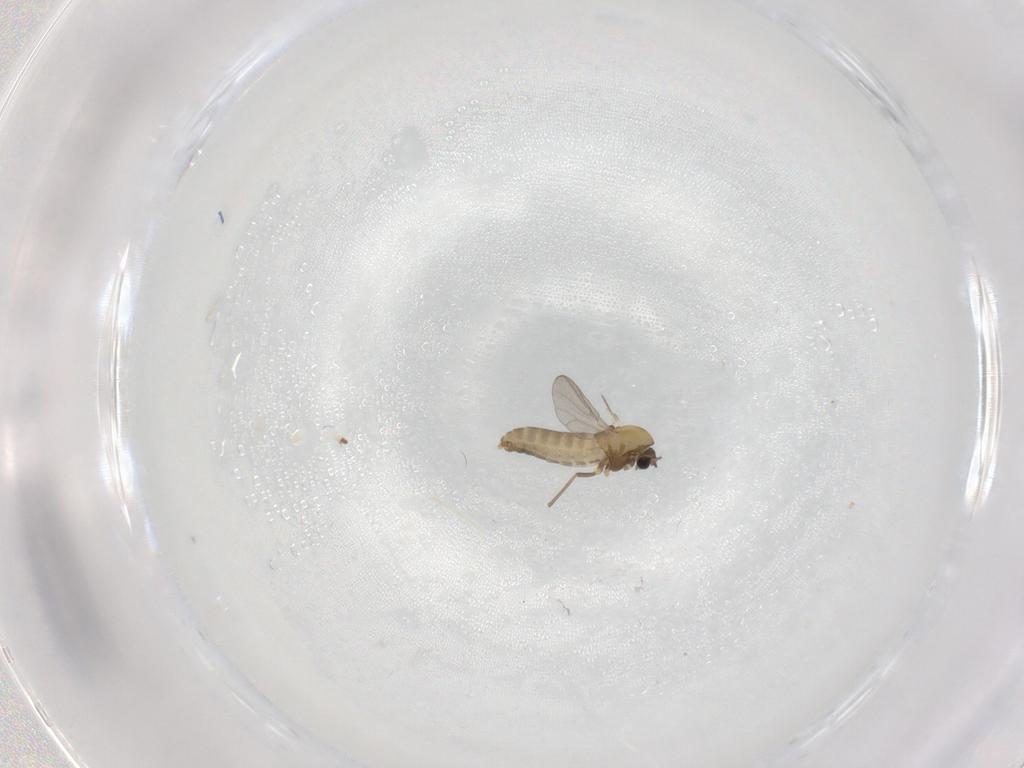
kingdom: Animalia
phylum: Arthropoda
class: Insecta
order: Diptera
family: Chironomidae
